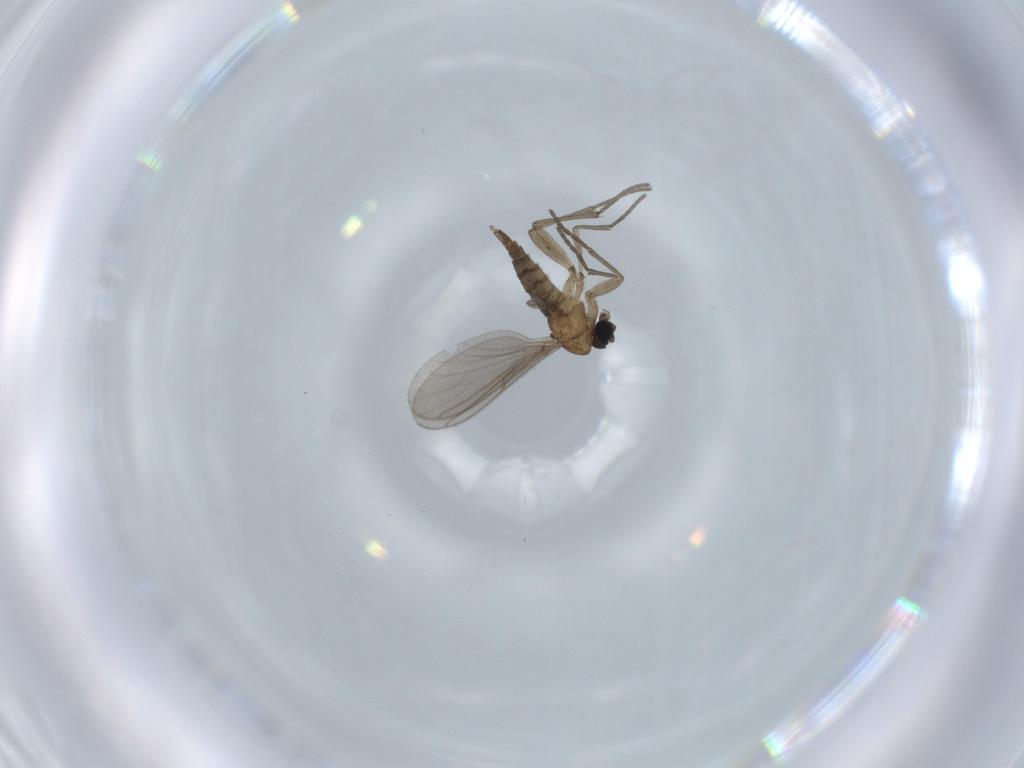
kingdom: Animalia
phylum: Arthropoda
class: Insecta
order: Diptera
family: Sciaridae
